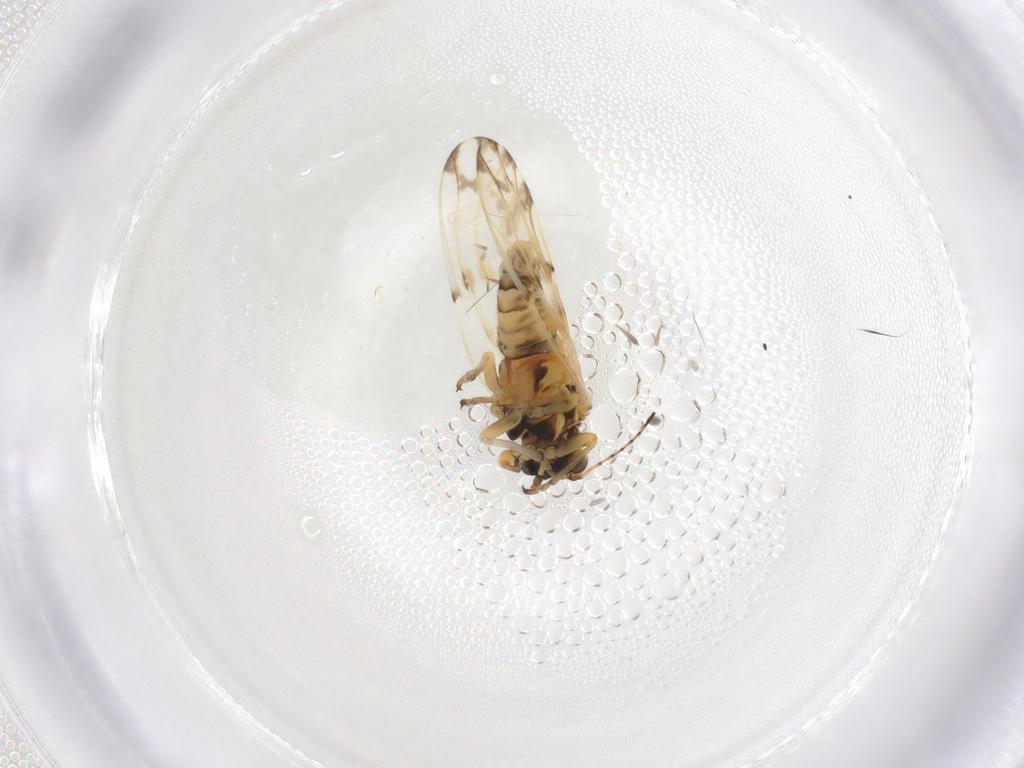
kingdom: Animalia
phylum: Arthropoda
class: Insecta
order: Hemiptera
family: Psylloidea_incertae_sedis
